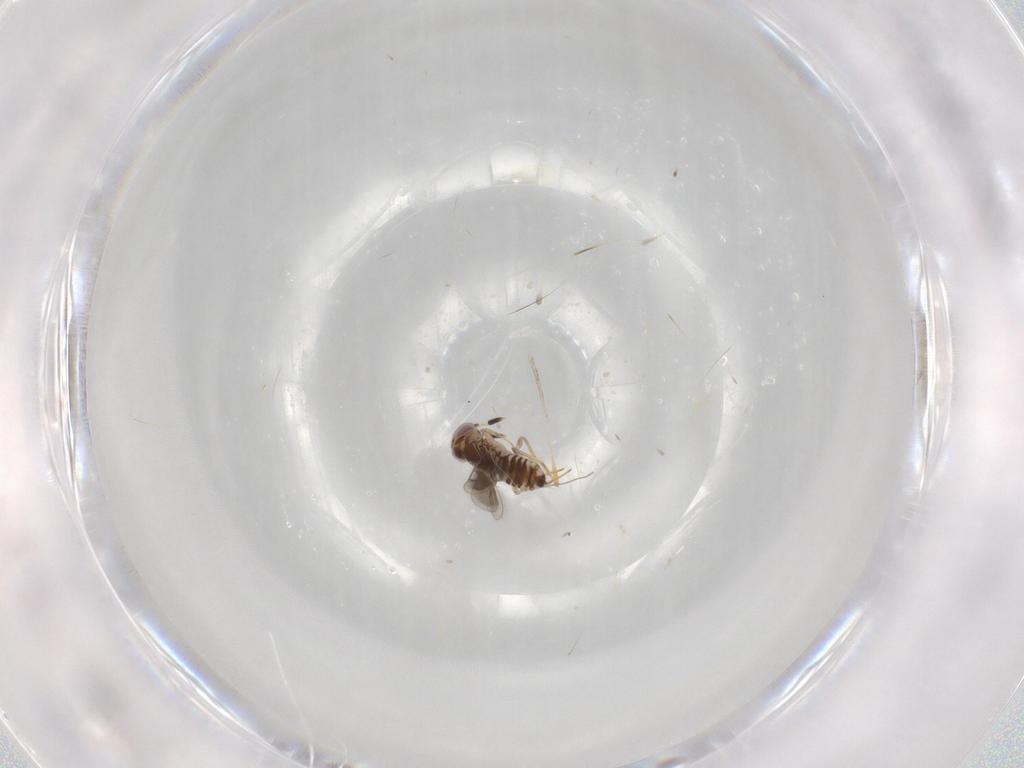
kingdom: Animalia
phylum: Arthropoda
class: Insecta
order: Hymenoptera
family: Formicidae
